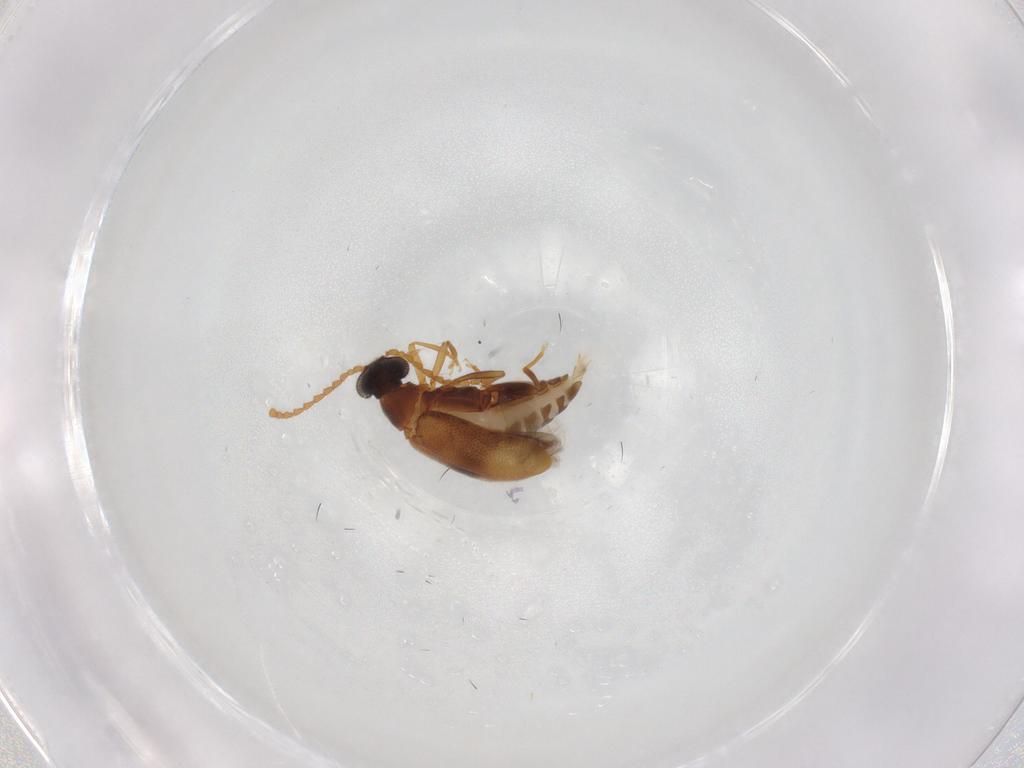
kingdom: Animalia
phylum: Arthropoda
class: Insecta
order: Coleoptera
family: Aderidae
